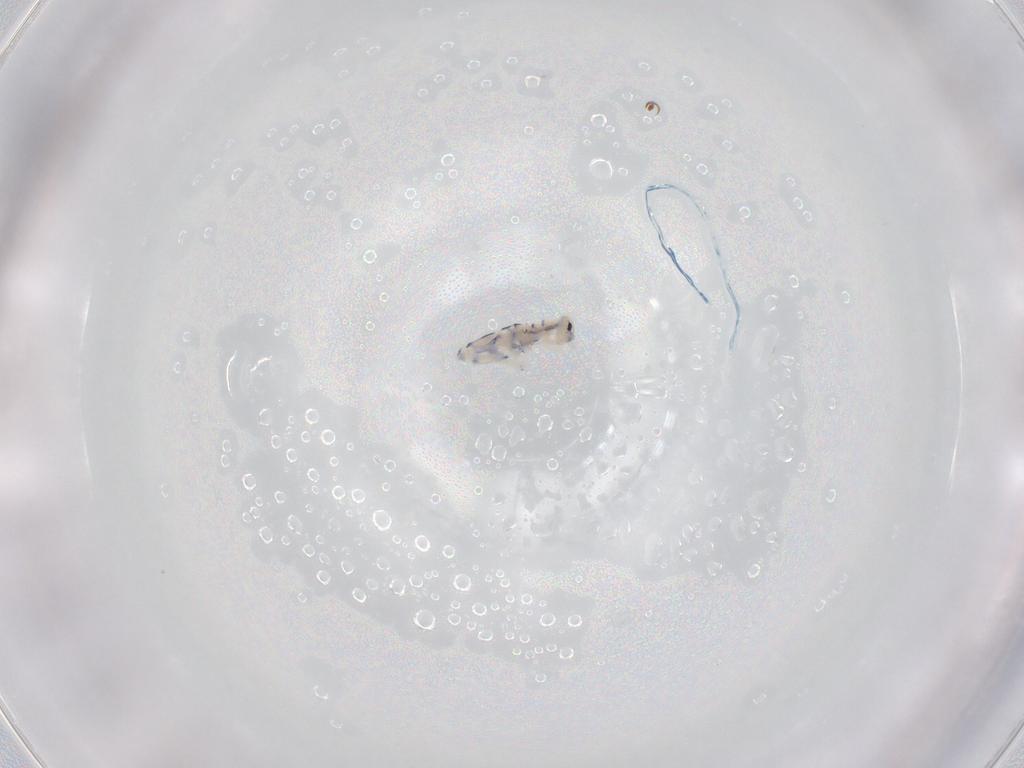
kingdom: Animalia
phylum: Arthropoda
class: Collembola
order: Entomobryomorpha
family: Entomobryidae
